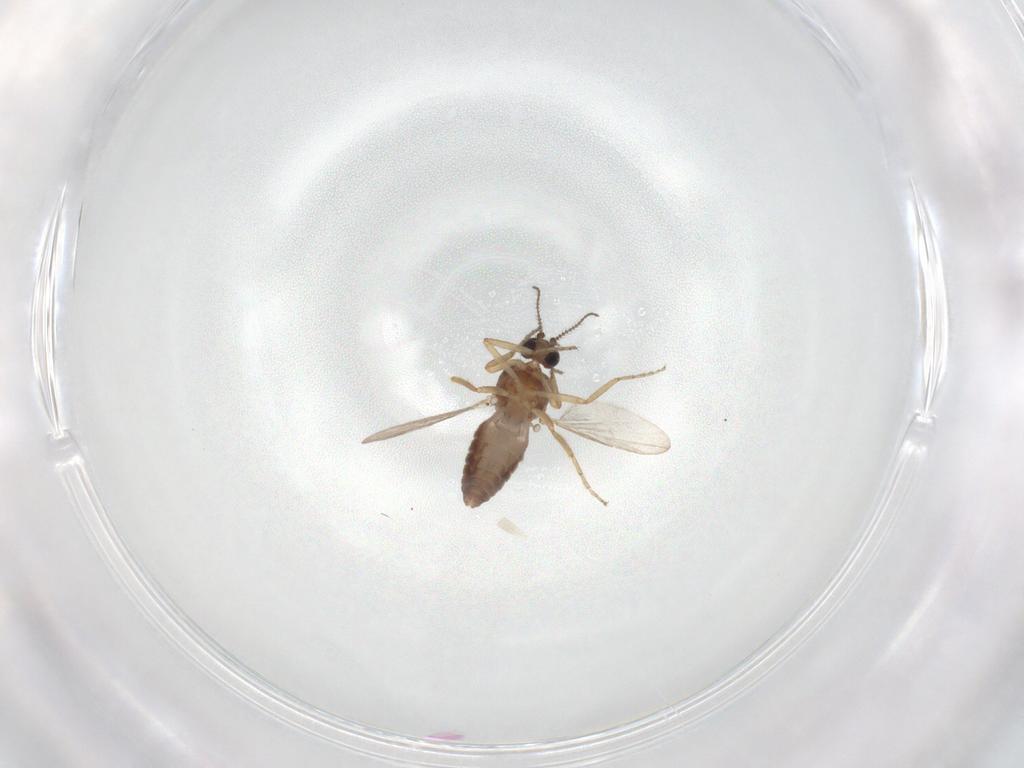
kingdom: Animalia
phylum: Arthropoda
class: Insecta
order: Diptera
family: Ceratopogonidae
